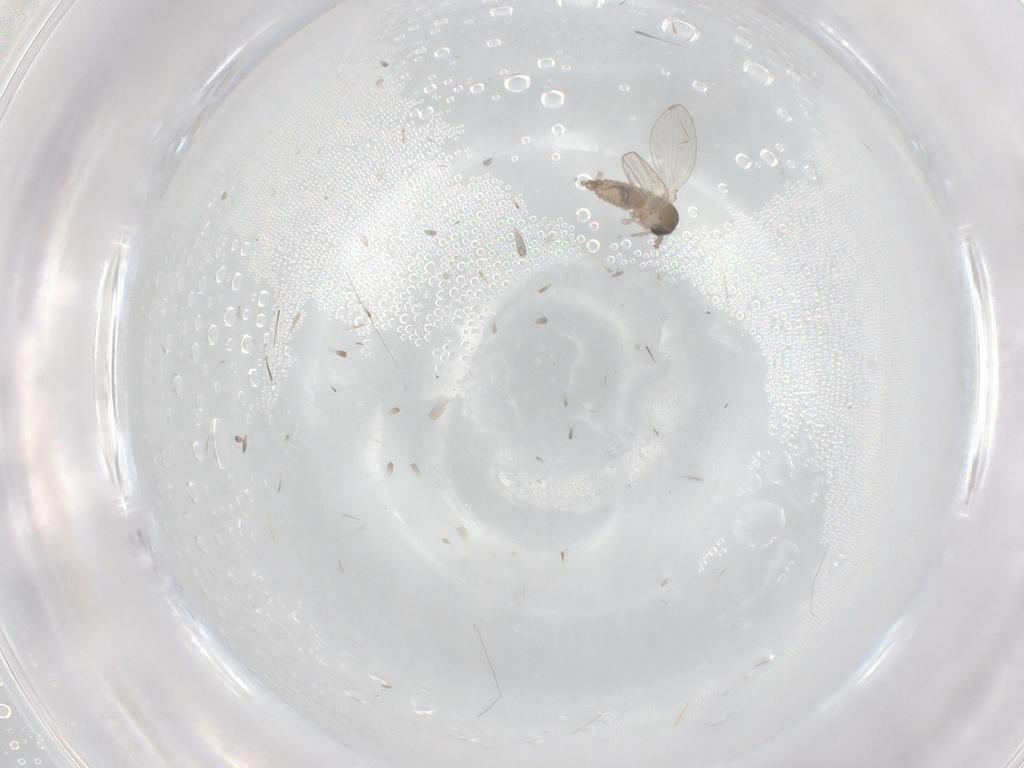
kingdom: Animalia
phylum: Arthropoda
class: Insecta
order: Diptera
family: Psychodidae
